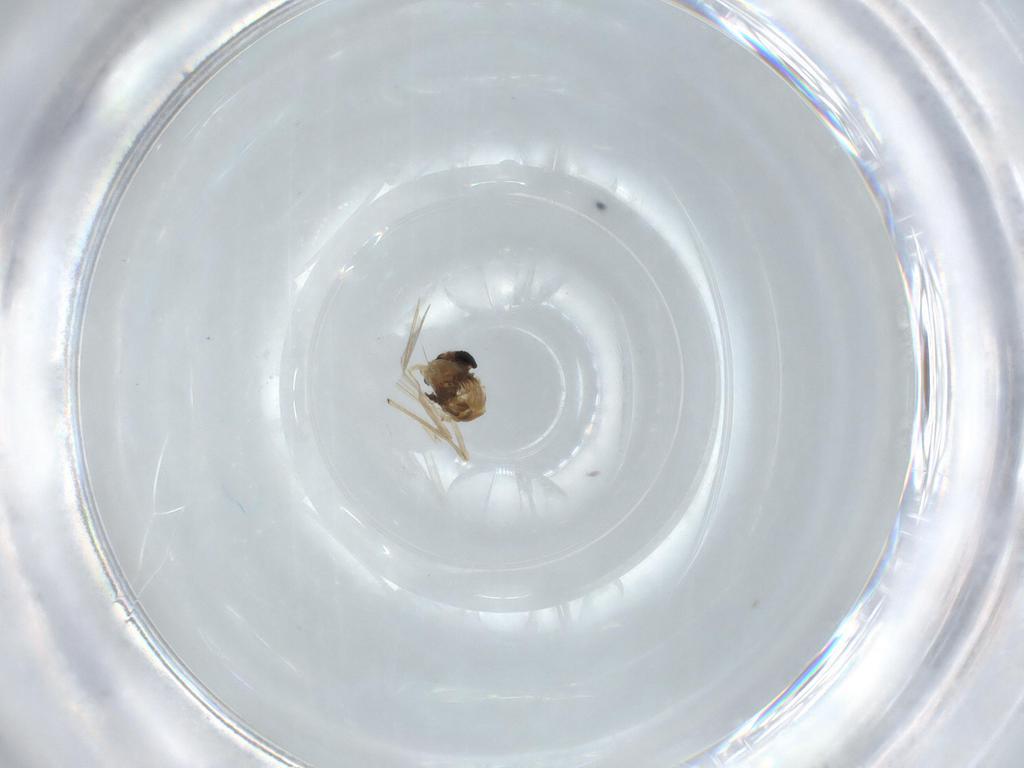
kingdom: Animalia
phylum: Arthropoda
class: Insecta
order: Diptera
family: Chironomidae
